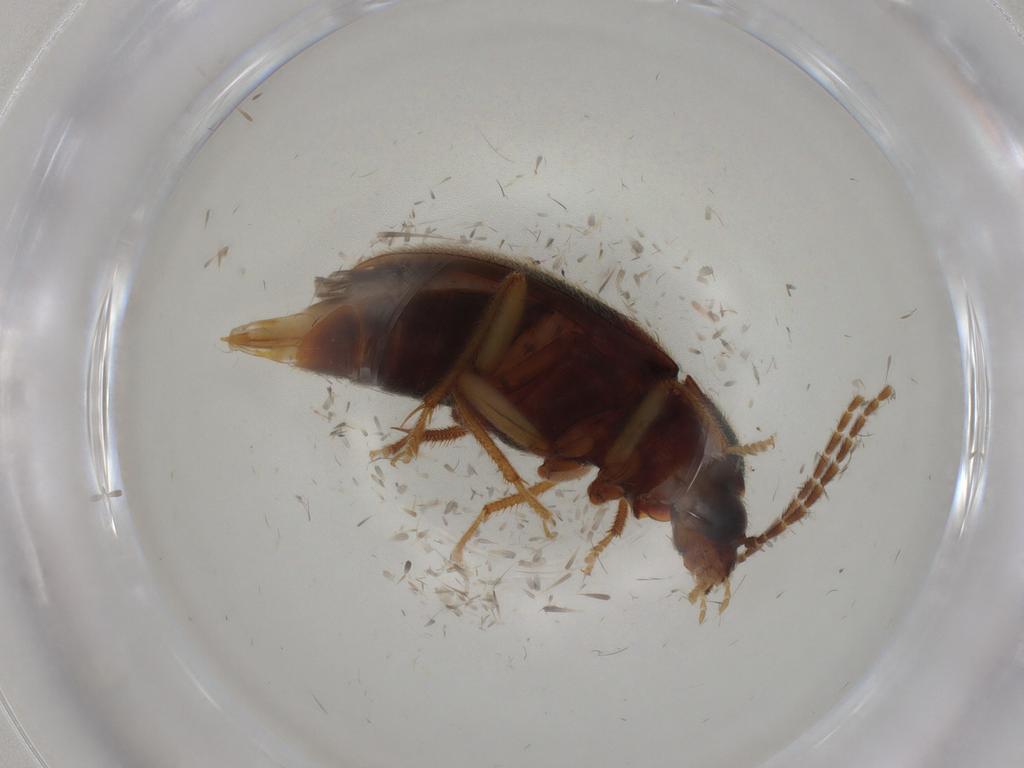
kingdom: Animalia
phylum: Arthropoda
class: Insecta
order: Coleoptera
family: Ptilodactylidae
